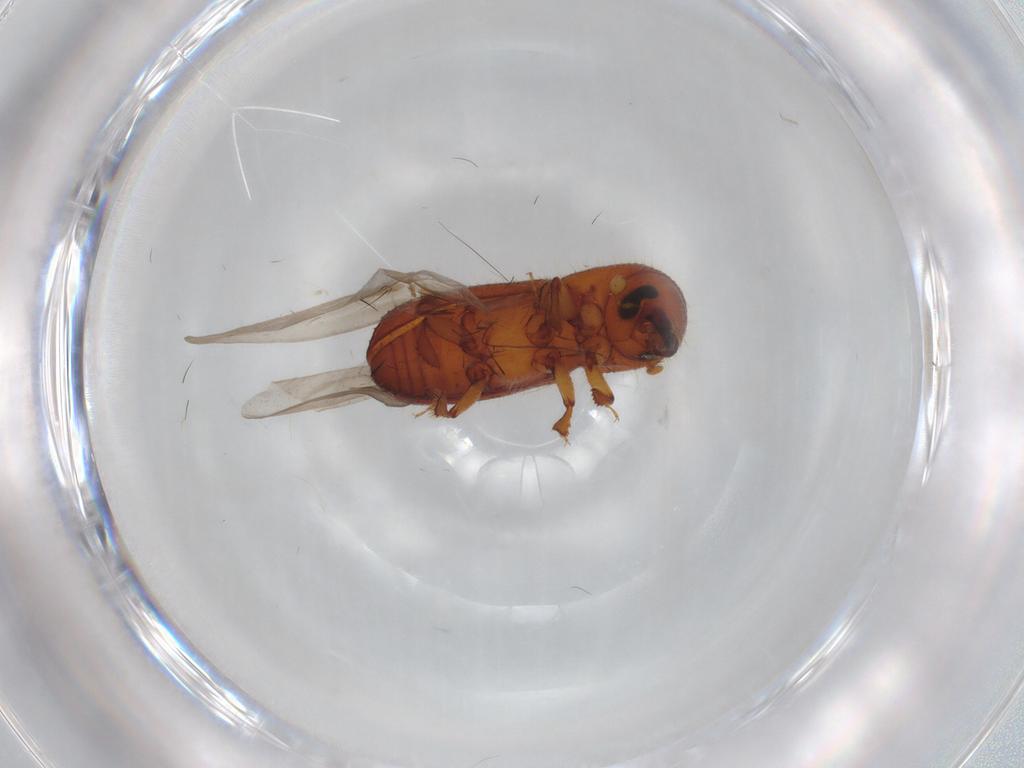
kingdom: Animalia
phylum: Arthropoda
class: Insecta
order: Coleoptera
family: Curculionidae
